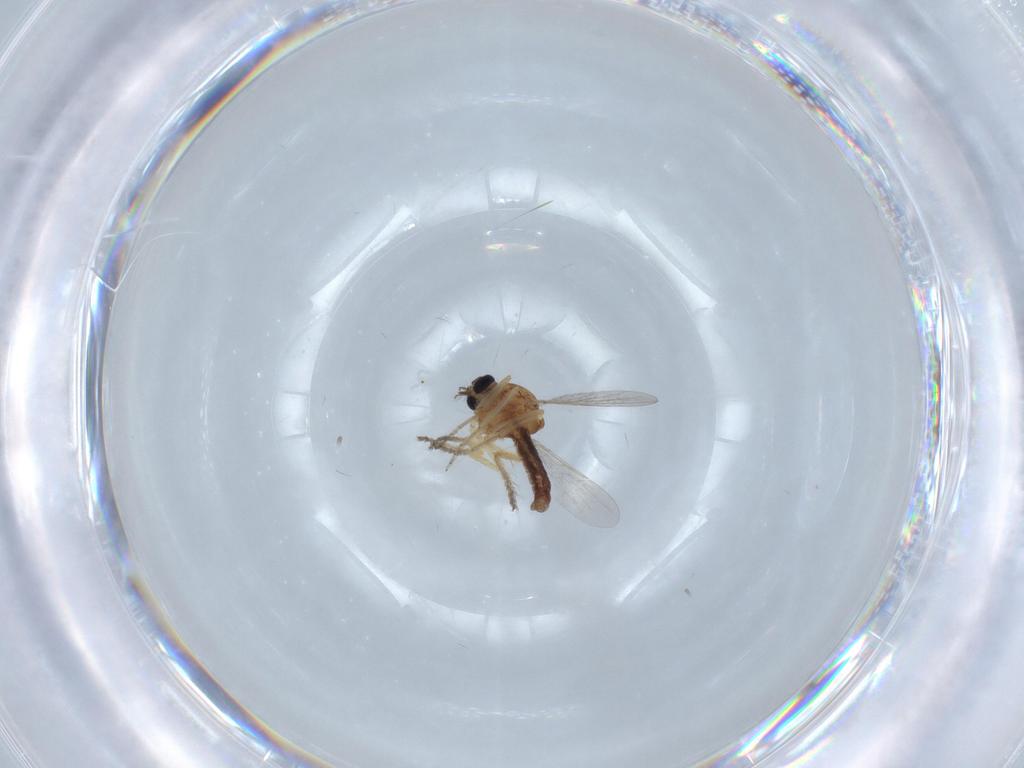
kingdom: Animalia
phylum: Arthropoda
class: Insecta
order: Diptera
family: Ceratopogonidae
